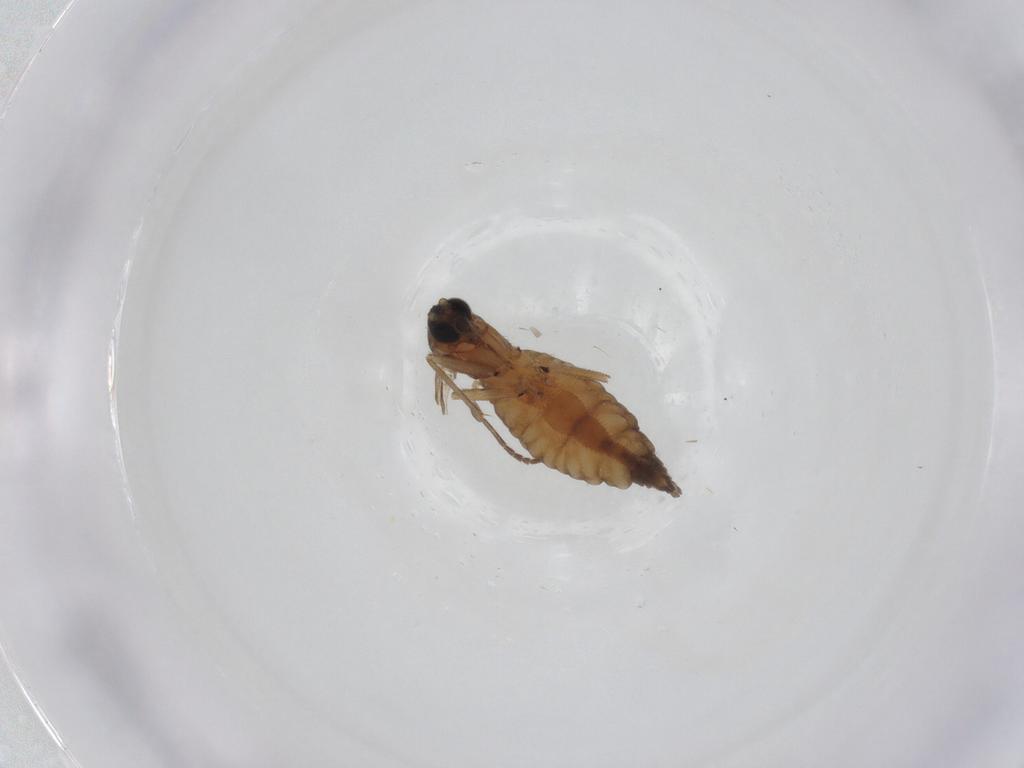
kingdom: Animalia
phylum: Arthropoda
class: Insecta
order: Diptera
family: Sciaridae
